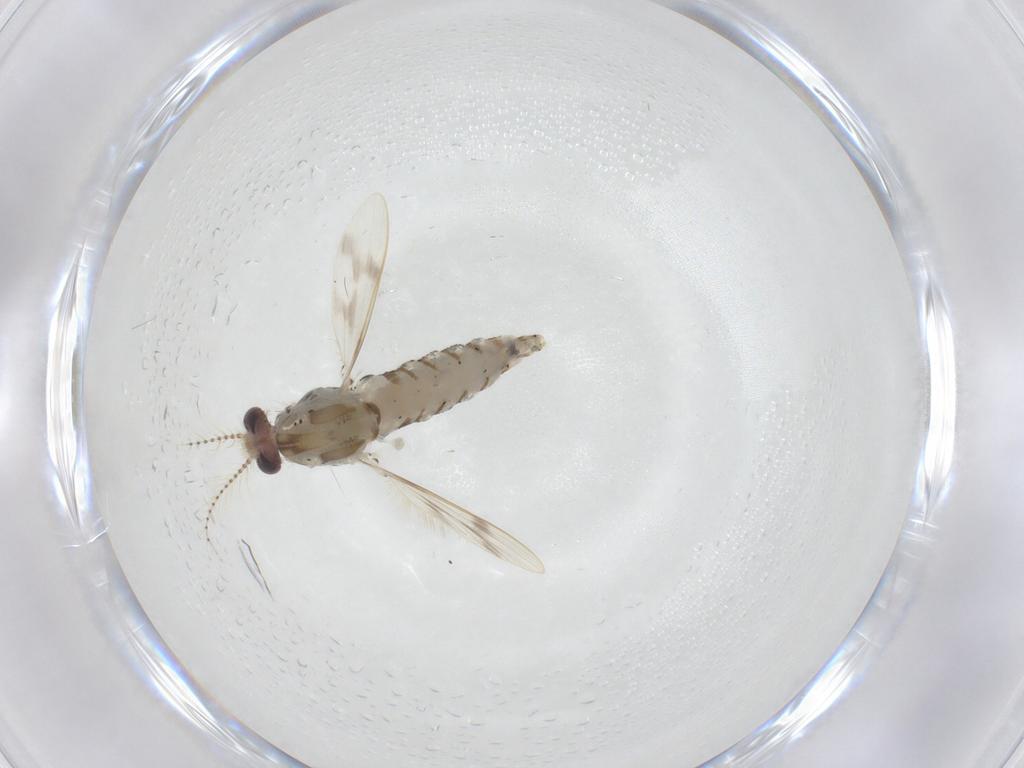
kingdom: Animalia
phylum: Arthropoda
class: Insecta
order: Diptera
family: Chaoboridae
